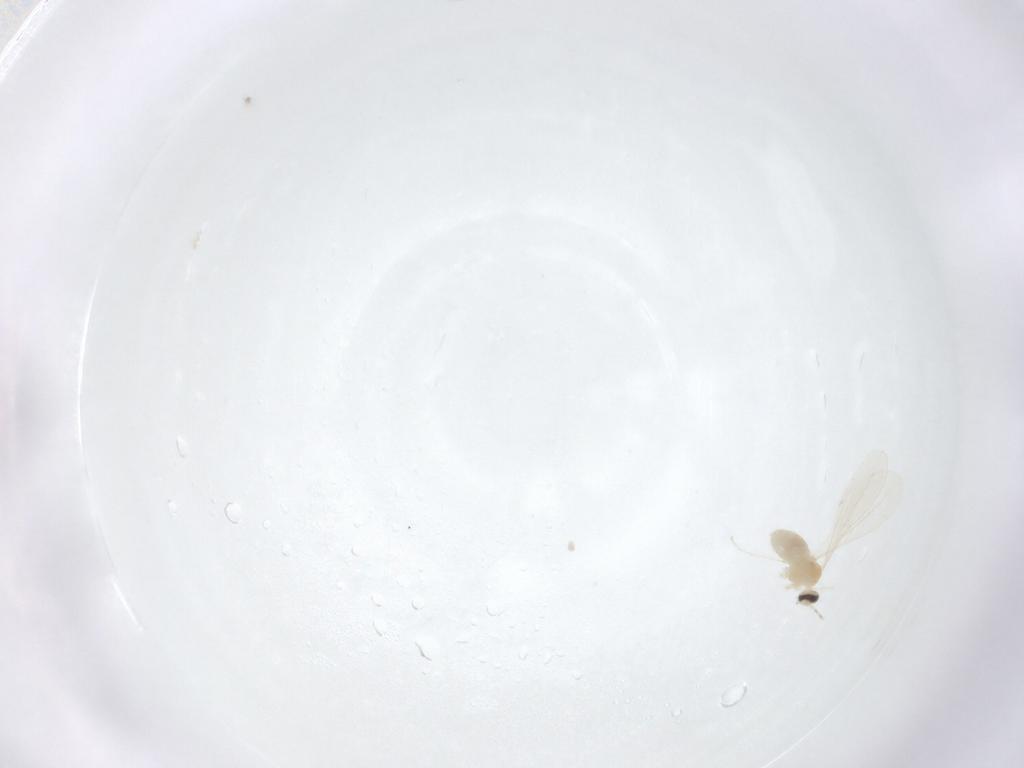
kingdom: Animalia
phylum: Arthropoda
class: Insecta
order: Diptera
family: Cecidomyiidae
